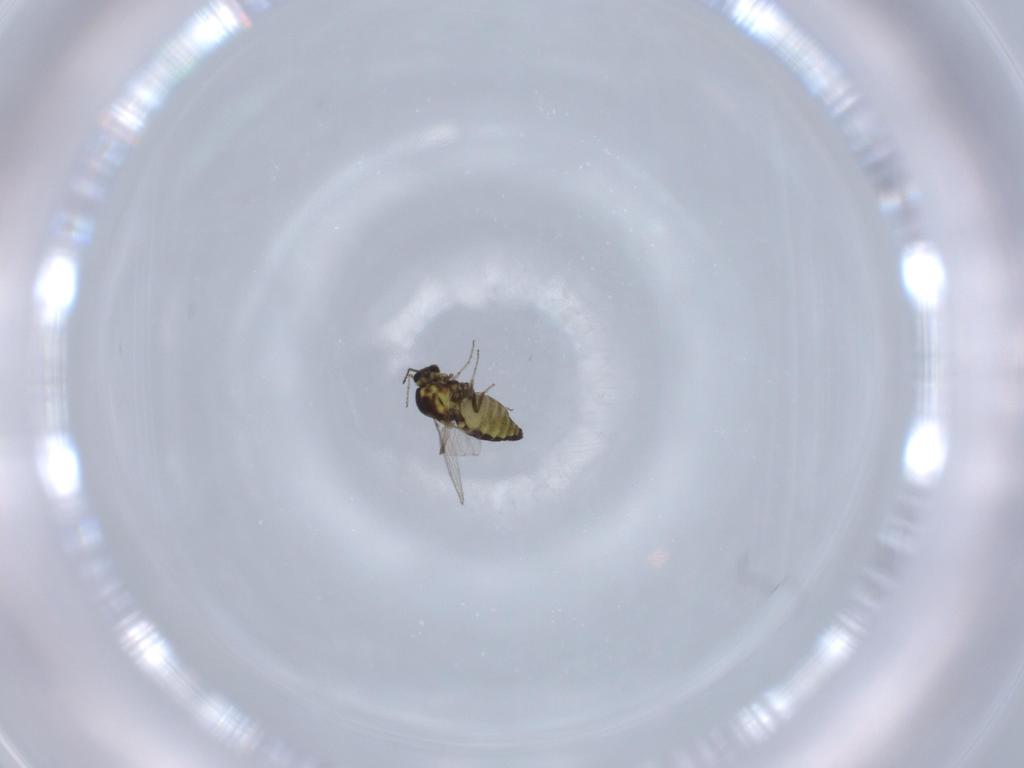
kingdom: Animalia
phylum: Arthropoda
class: Insecta
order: Diptera
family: Ceratopogonidae
